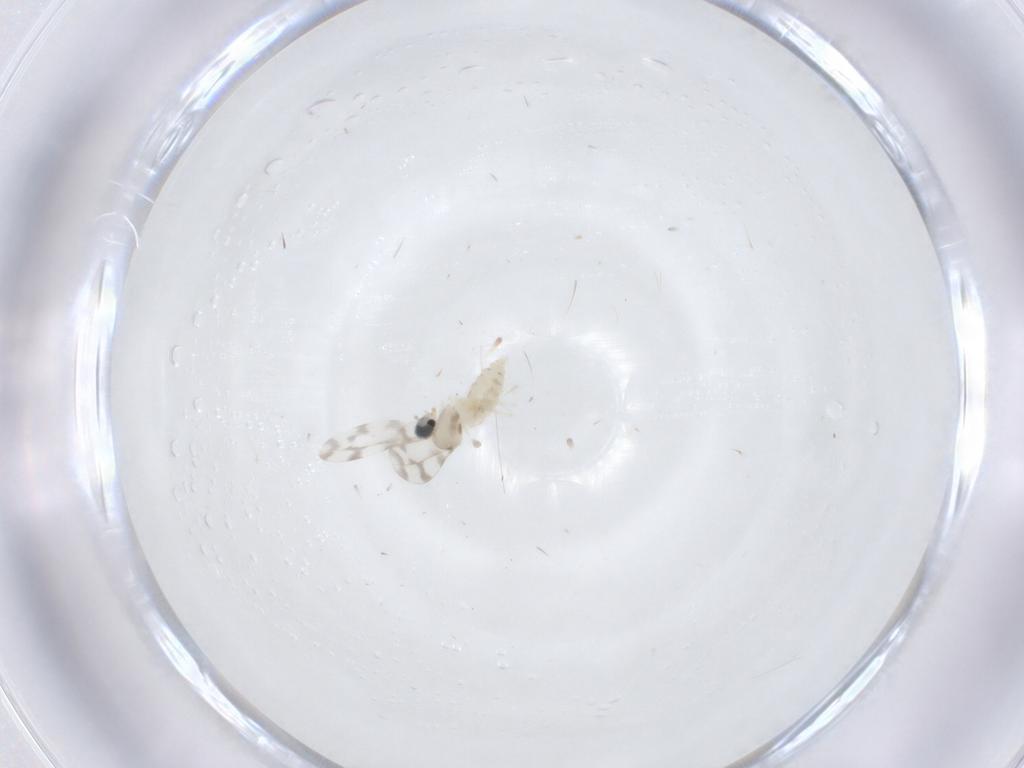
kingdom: Animalia
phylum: Arthropoda
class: Insecta
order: Diptera
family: Cecidomyiidae
